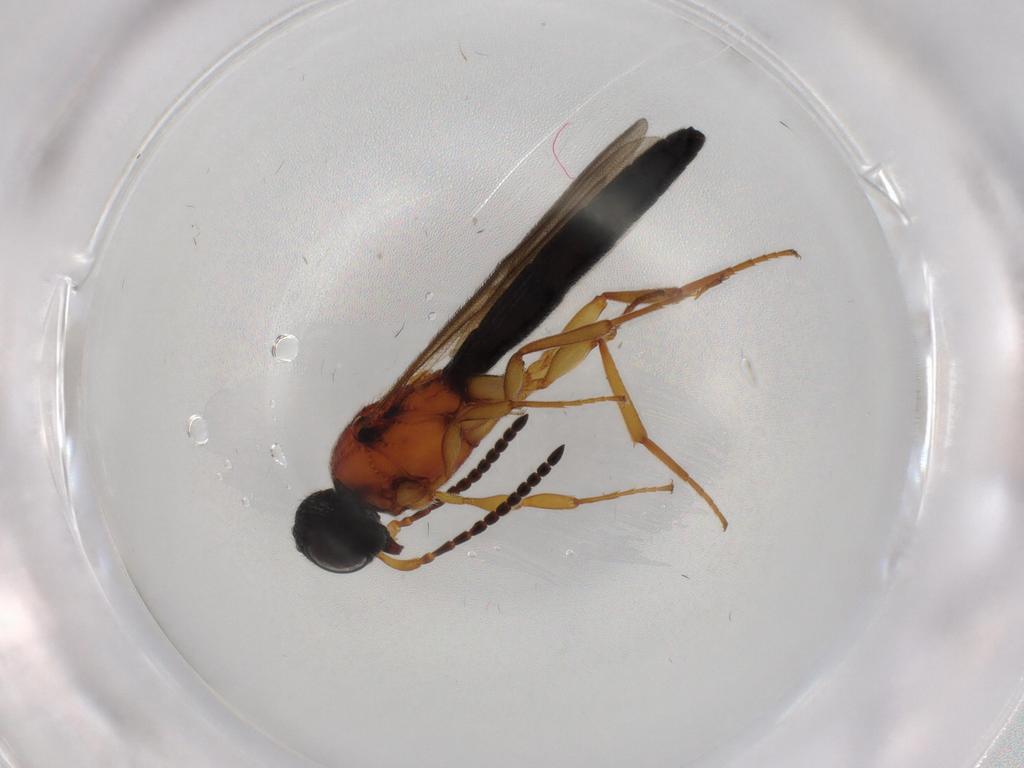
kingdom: Animalia
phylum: Arthropoda
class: Insecta
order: Hymenoptera
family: Scelionidae
